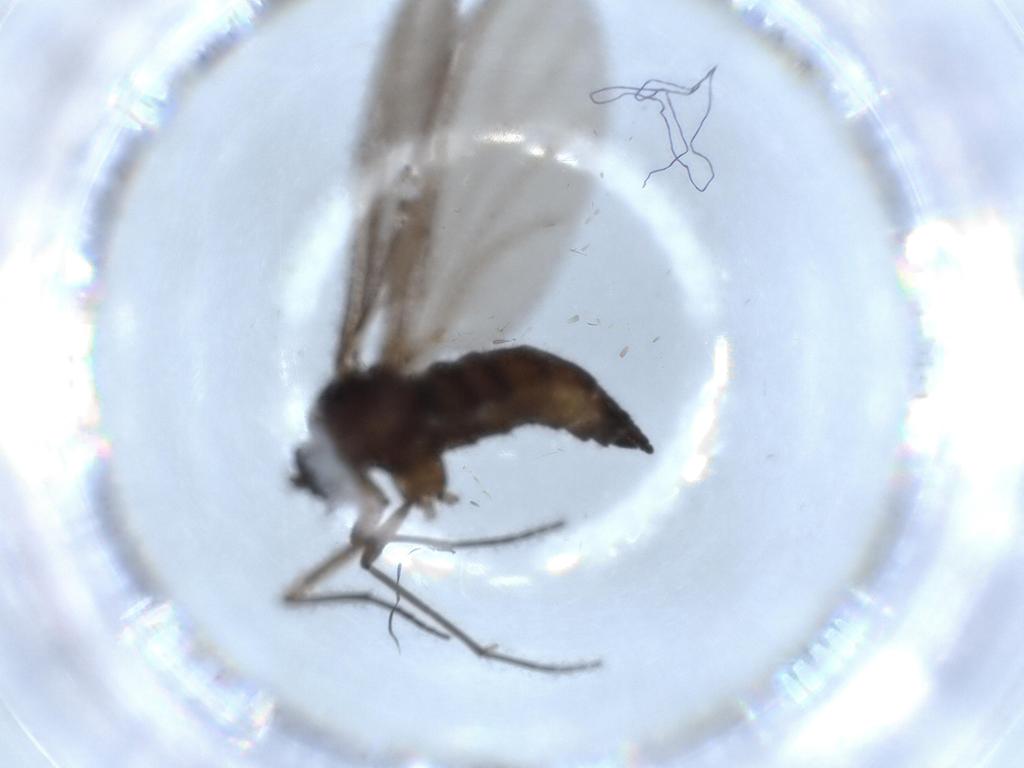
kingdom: Animalia
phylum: Arthropoda
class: Insecta
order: Diptera
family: Sciaridae
